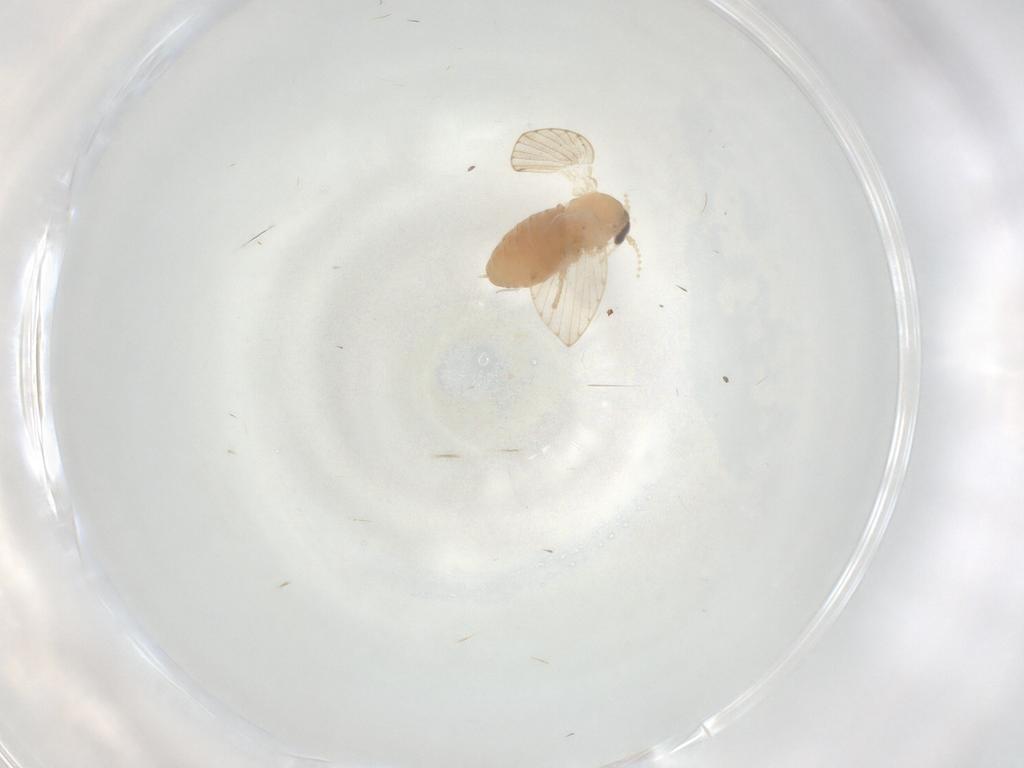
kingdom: Animalia
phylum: Arthropoda
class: Insecta
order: Diptera
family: Psychodidae
